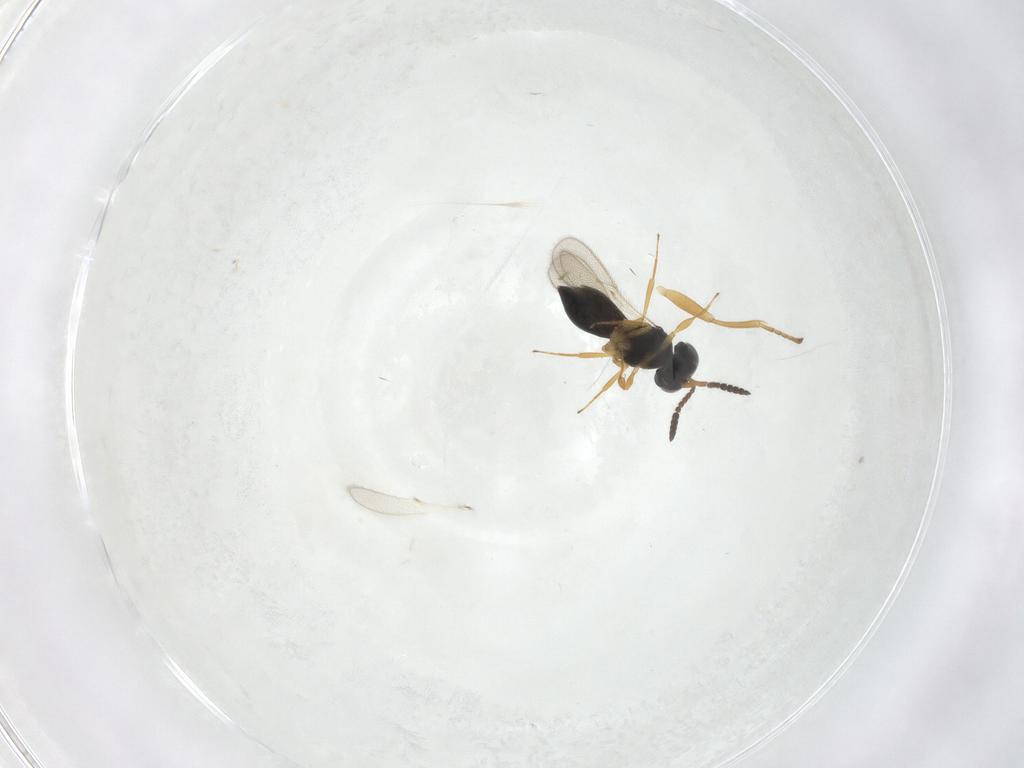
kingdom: Animalia
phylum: Arthropoda
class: Insecta
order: Hymenoptera
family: Scelionidae
